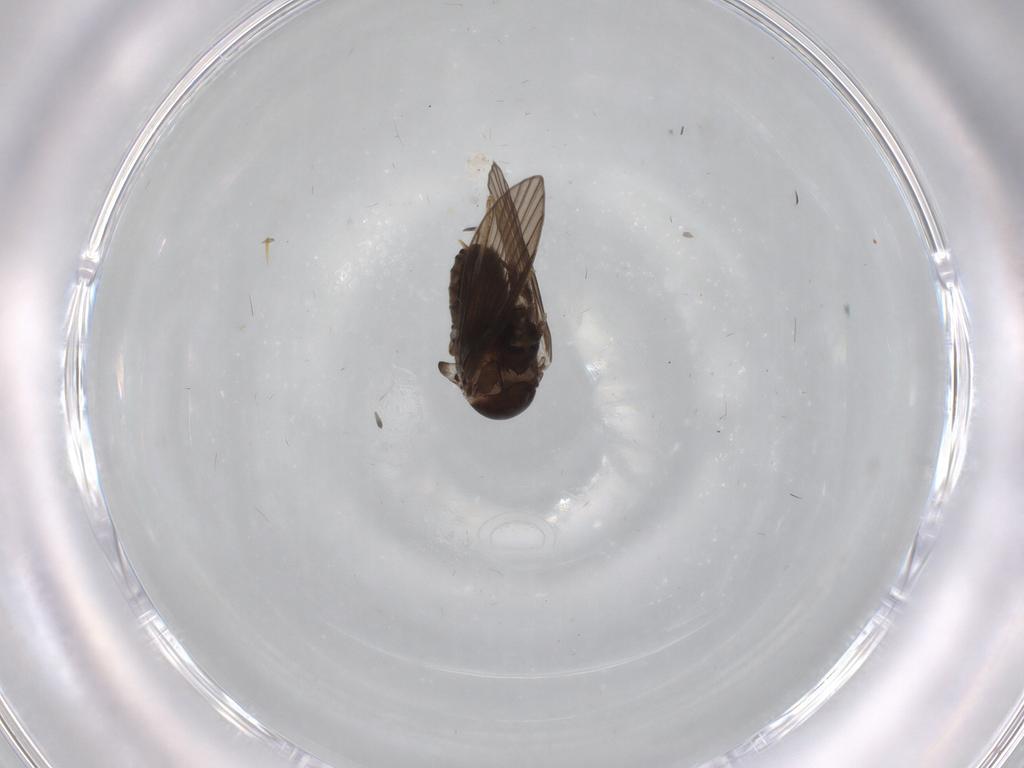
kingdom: Animalia
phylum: Arthropoda
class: Insecta
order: Diptera
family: Psychodidae
